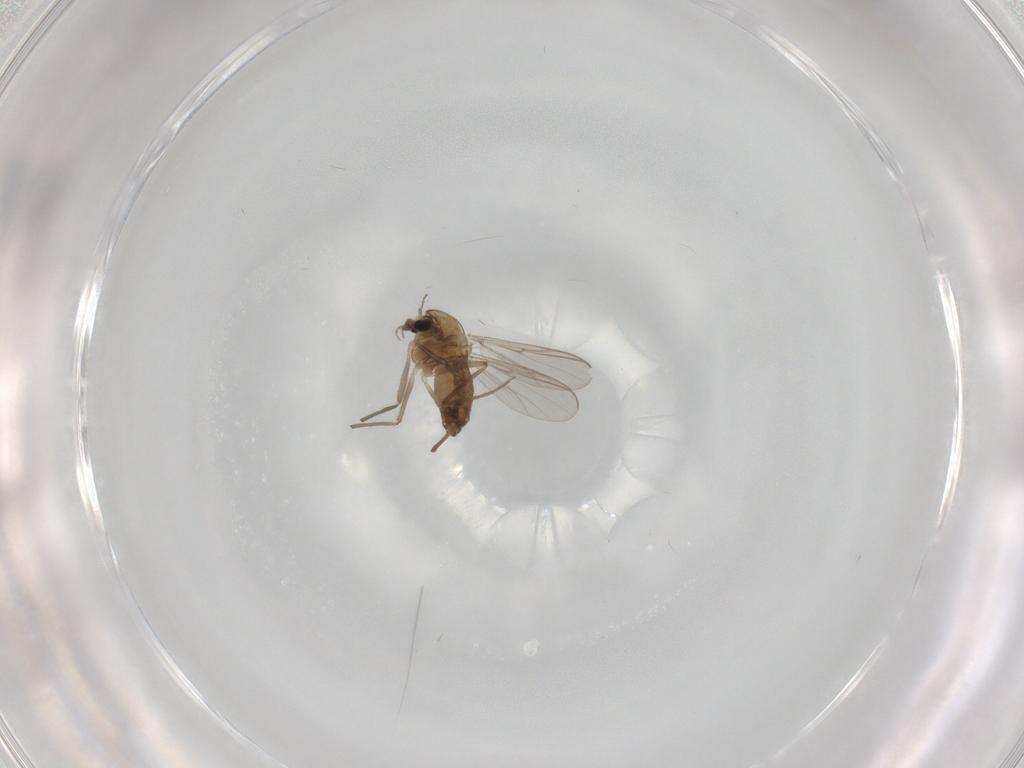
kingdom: Animalia
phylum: Arthropoda
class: Insecta
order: Diptera
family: Chironomidae
